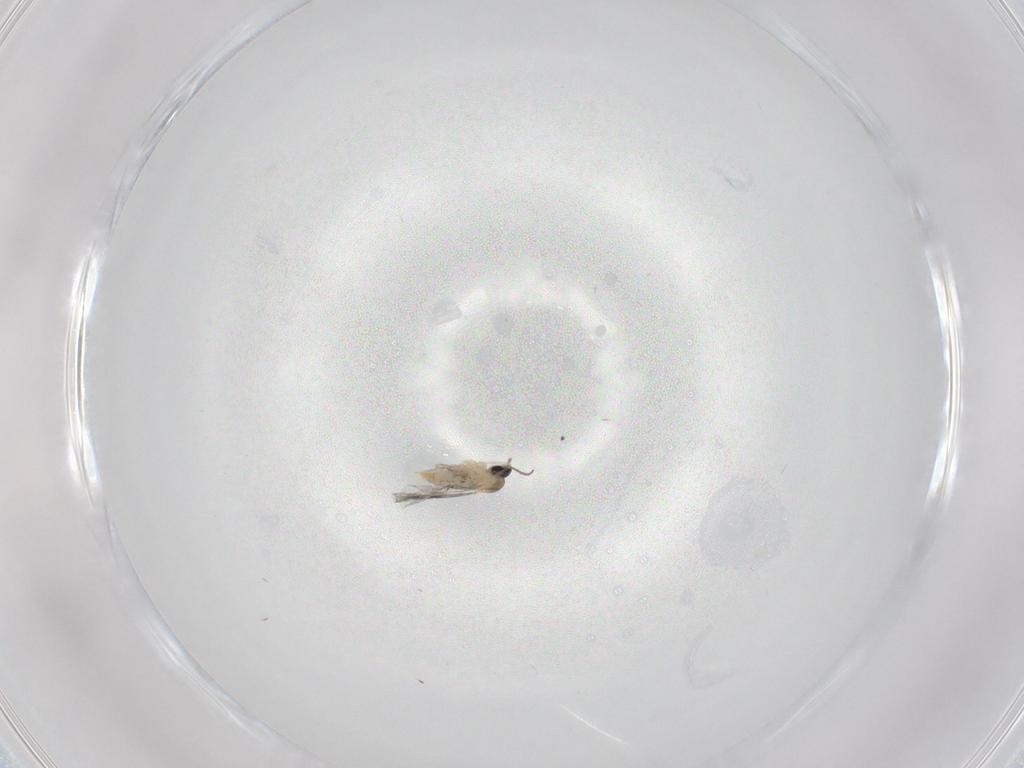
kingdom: Animalia
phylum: Arthropoda
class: Insecta
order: Diptera
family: Cecidomyiidae
